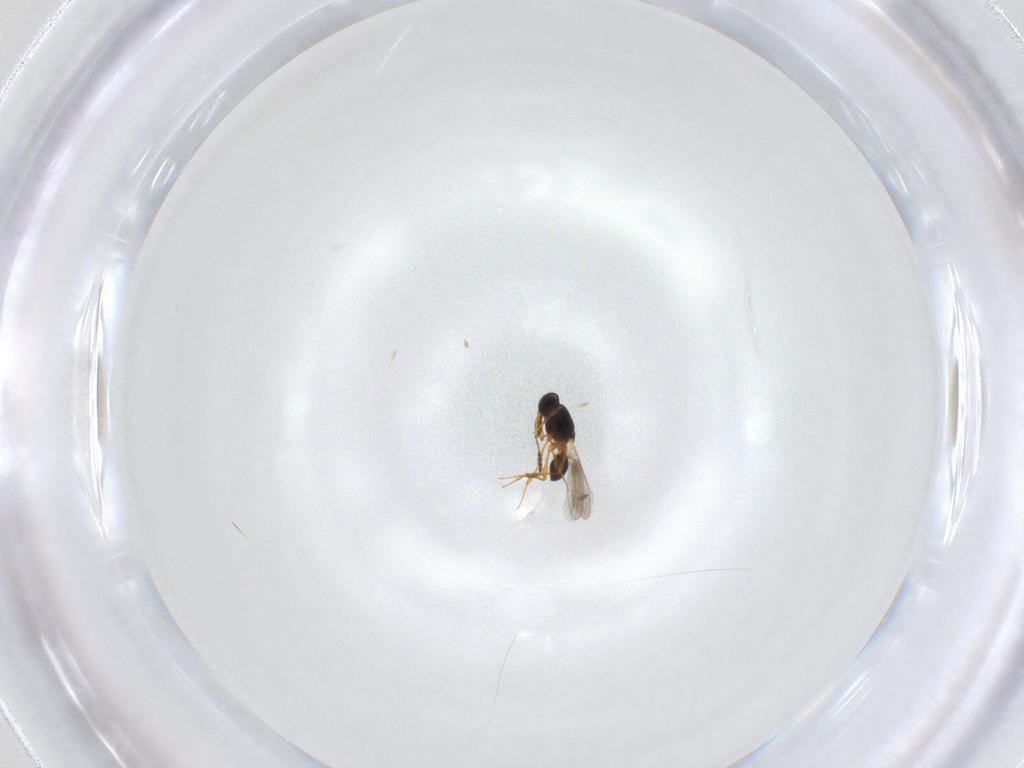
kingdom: Animalia
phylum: Arthropoda
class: Insecta
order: Hymenoptera
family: Platygastridae
